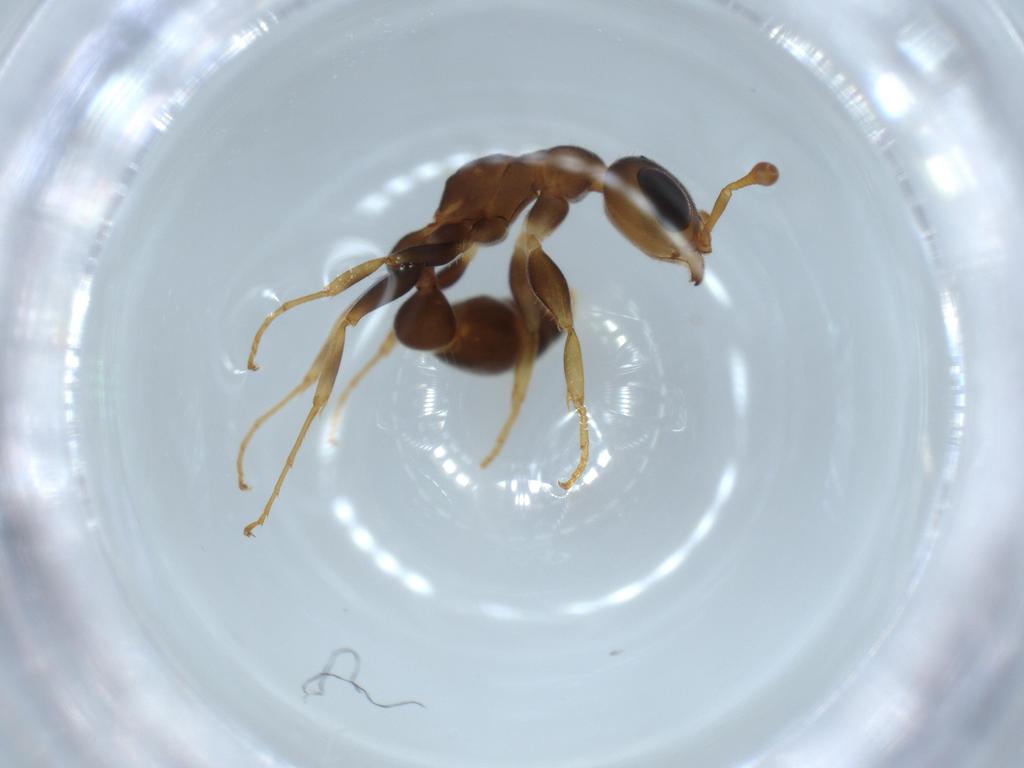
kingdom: Animalia
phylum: Arthropoda
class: Insecta
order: Hymenoptera
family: Formicidae
